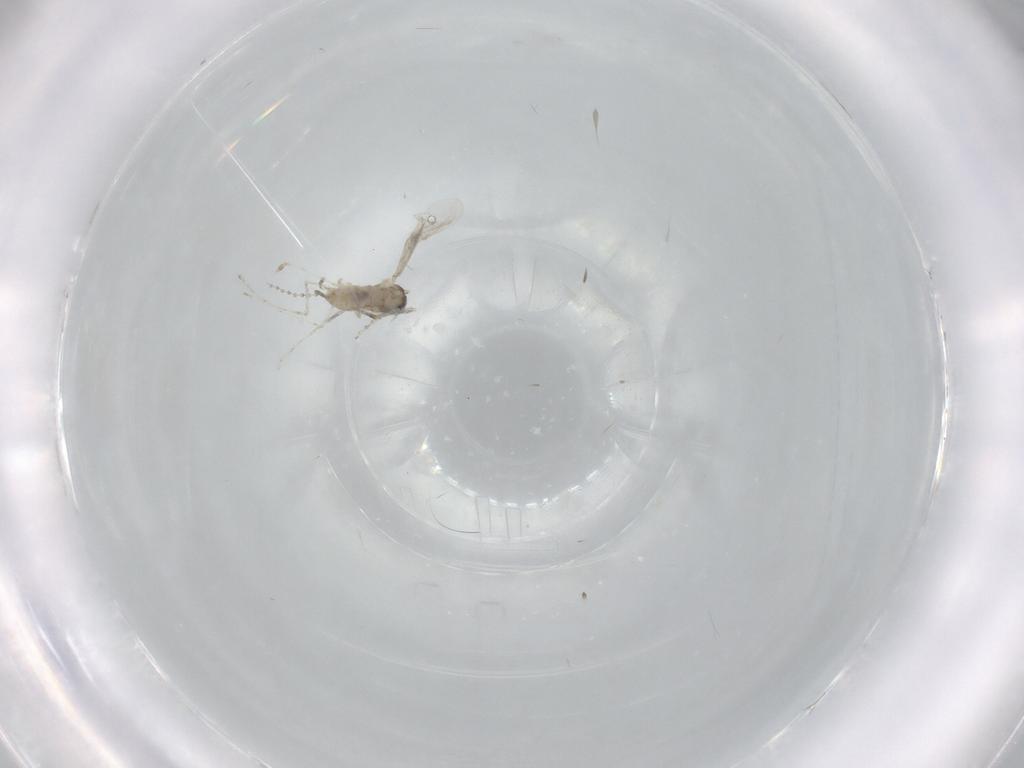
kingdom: Animalia
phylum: Arthropoda
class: Insecta
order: Diptera
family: Cecidomyiidae
